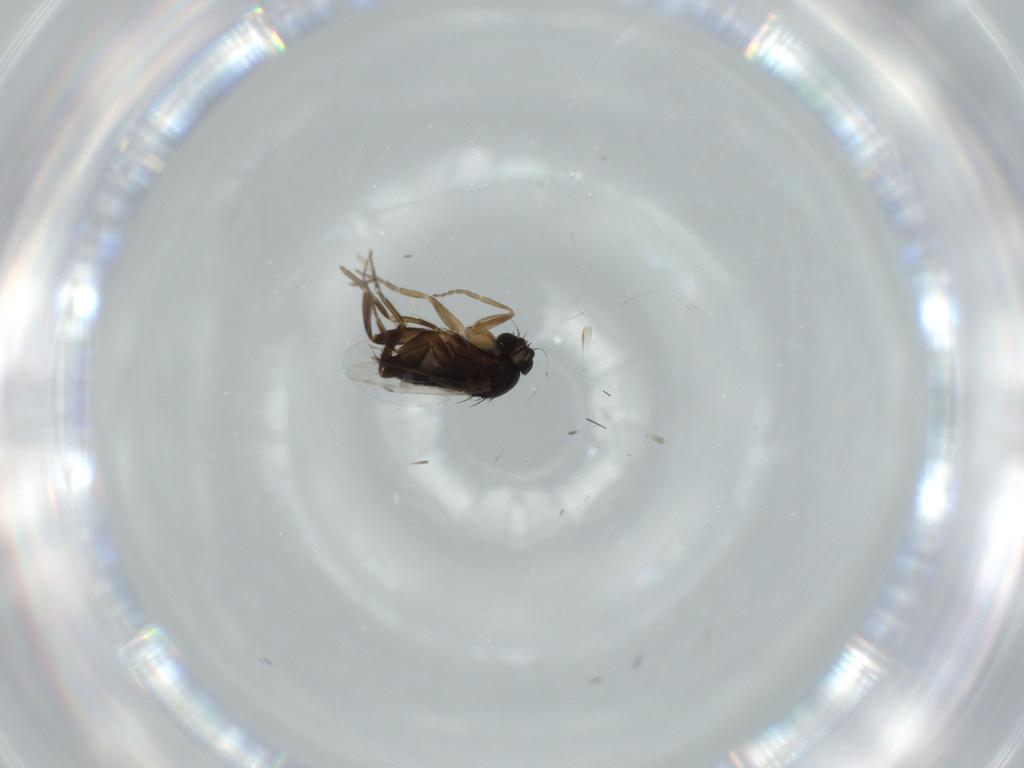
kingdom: Animalia
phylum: Arthropoda
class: Insecta
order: Diptera
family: Phoridae
